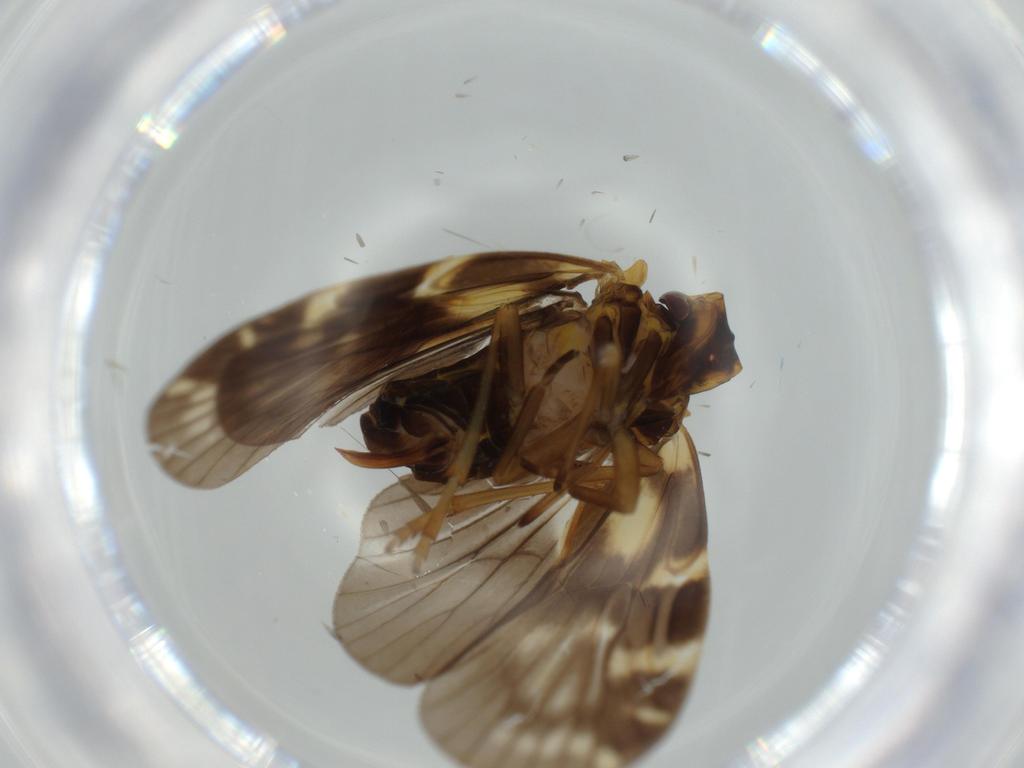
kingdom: Animalia
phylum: Arthropoda
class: Insecta
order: Hemiptera
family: Cixiidae
